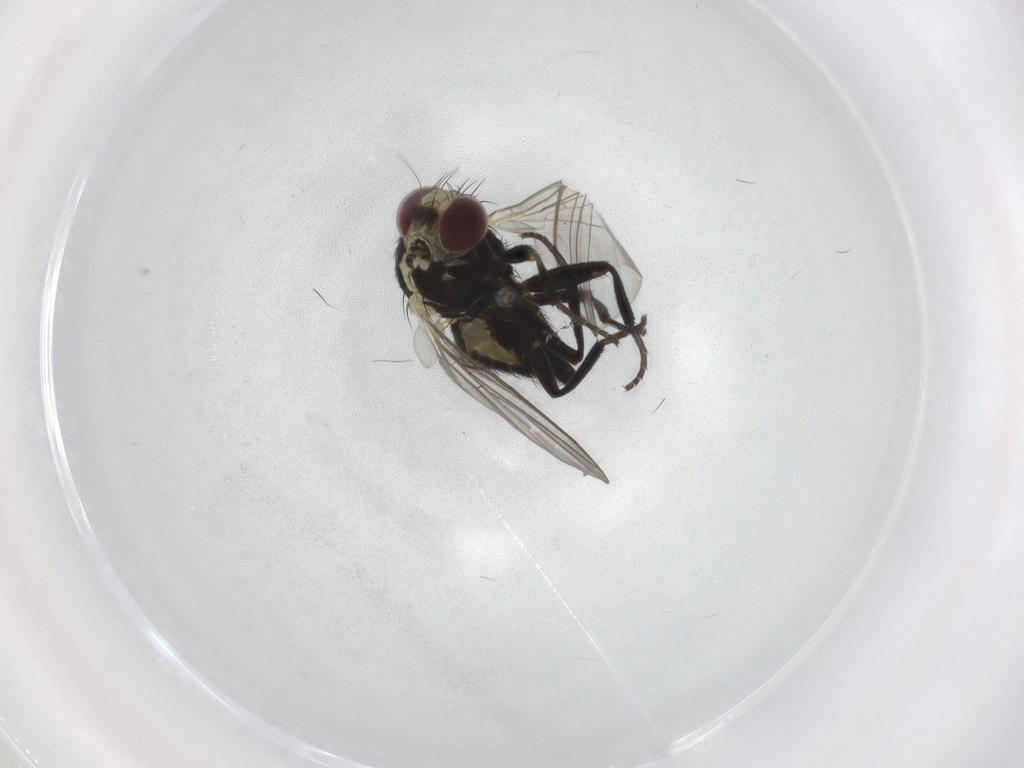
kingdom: Animalia
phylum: Arthropoda
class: Insecta
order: Diptera
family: Agromyzidae
